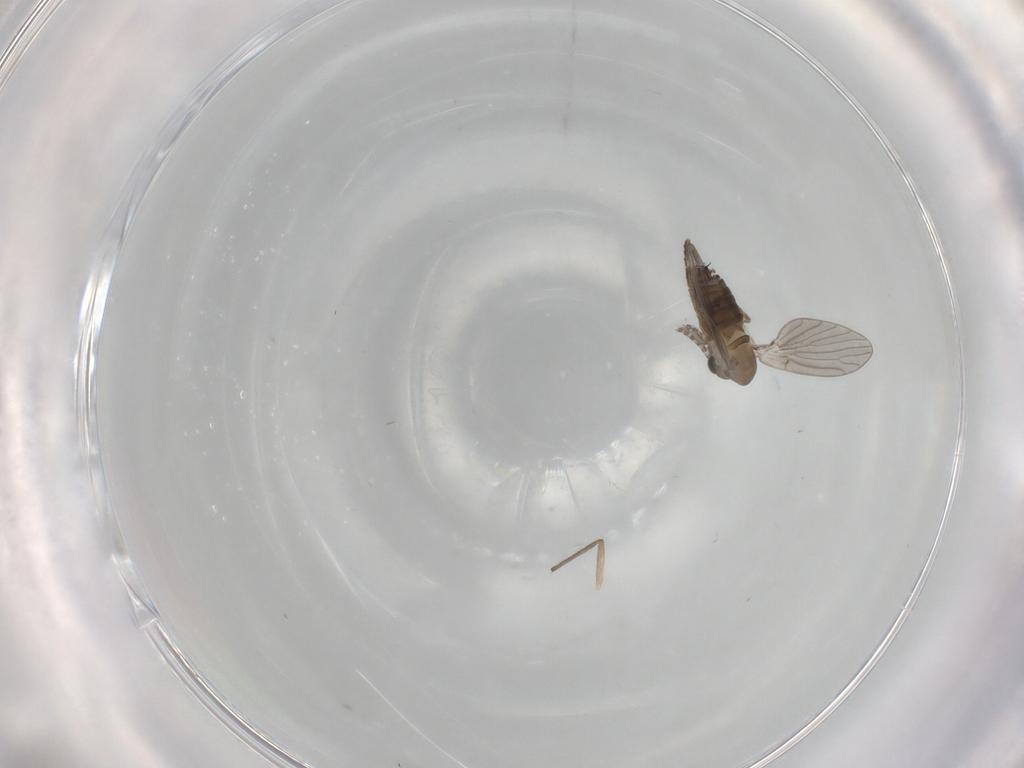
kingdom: Animalia
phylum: Arthropoda
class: Insecta
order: Diptera
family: Chironomidae
